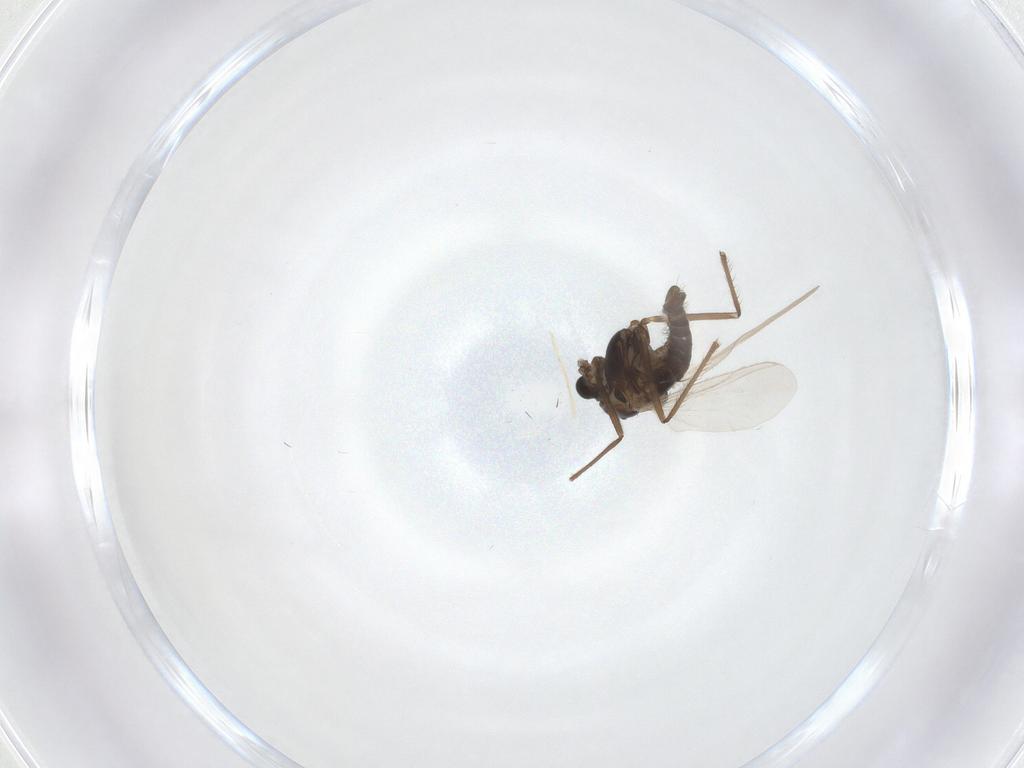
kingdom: Animalia
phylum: Arthropoda
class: Insecta
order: Diptera
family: Chironomidae
